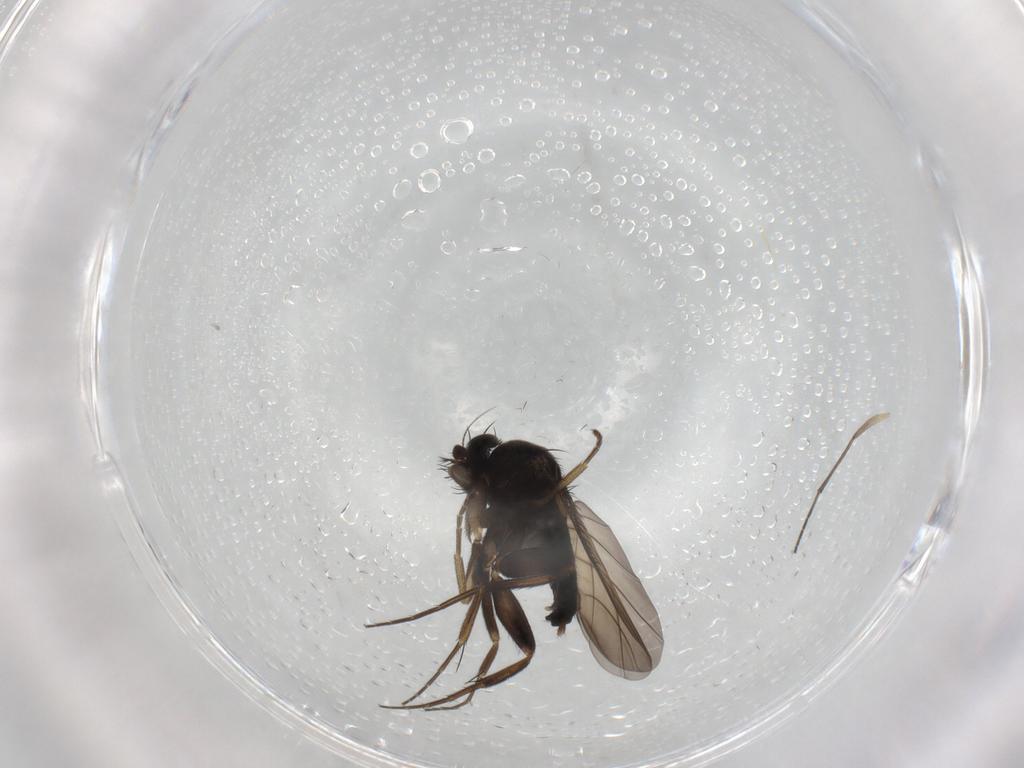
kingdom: Animalia
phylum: Arthropoda
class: Insecta
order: Diptera
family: Phoridae
